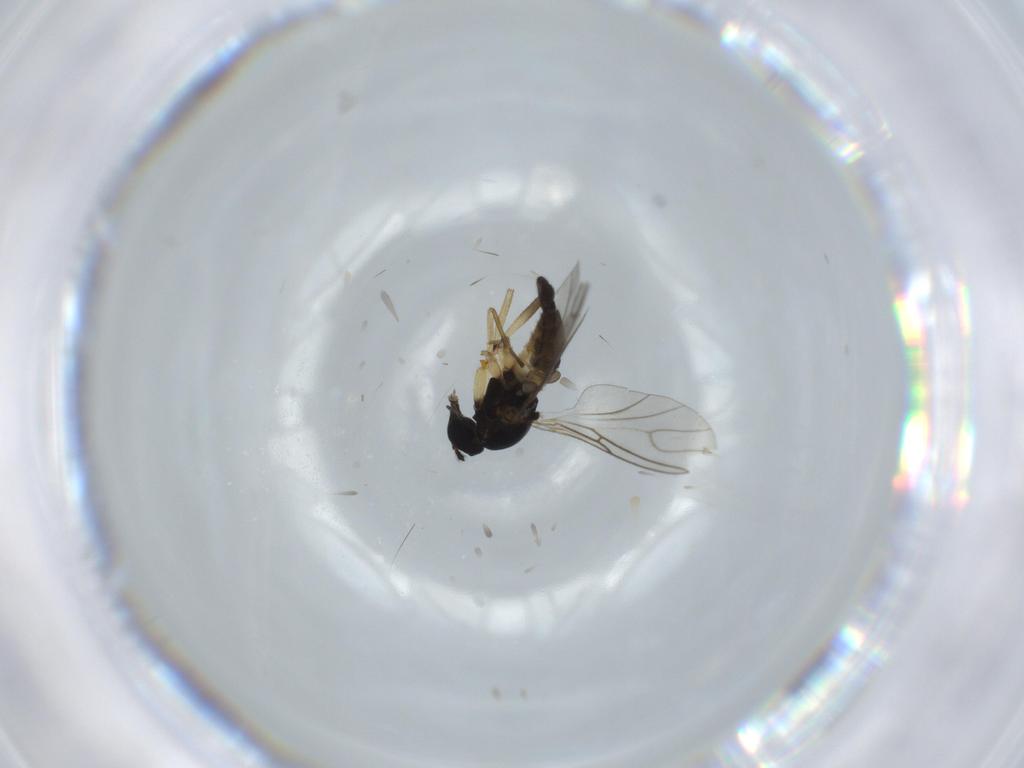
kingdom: Animalia
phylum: Arthropoda
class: Insecta
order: Diptera
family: Sciaridae
